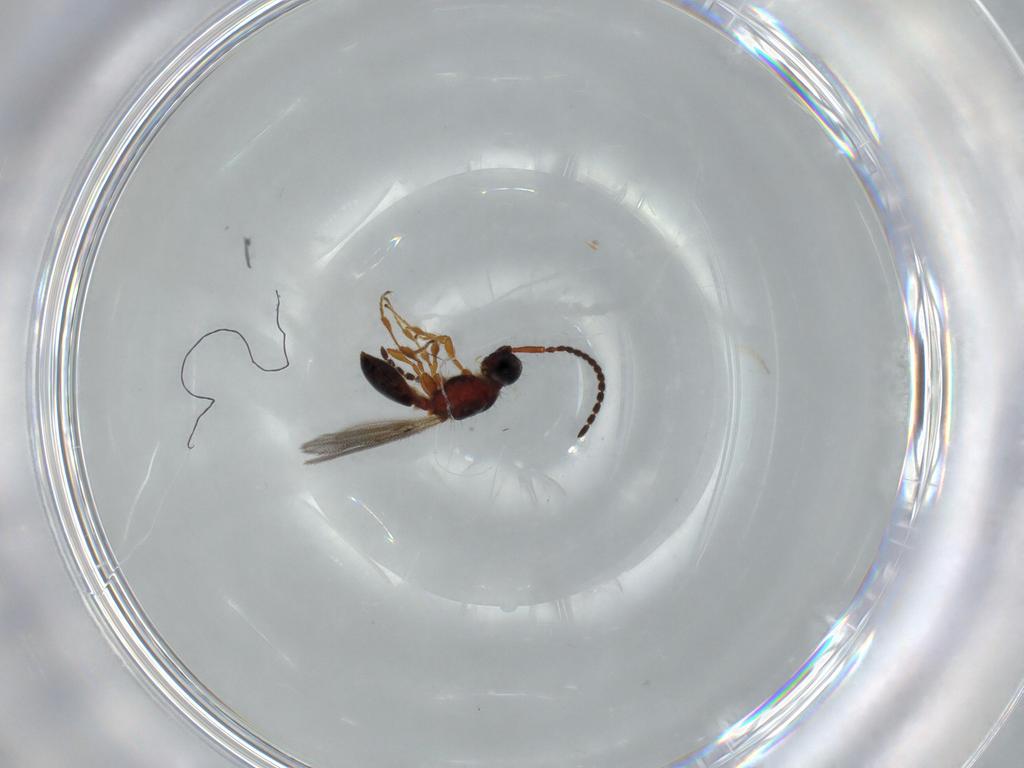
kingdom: Animalia
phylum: Arthropoda
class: Insecta
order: Hymenoptera
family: Diapriidae
